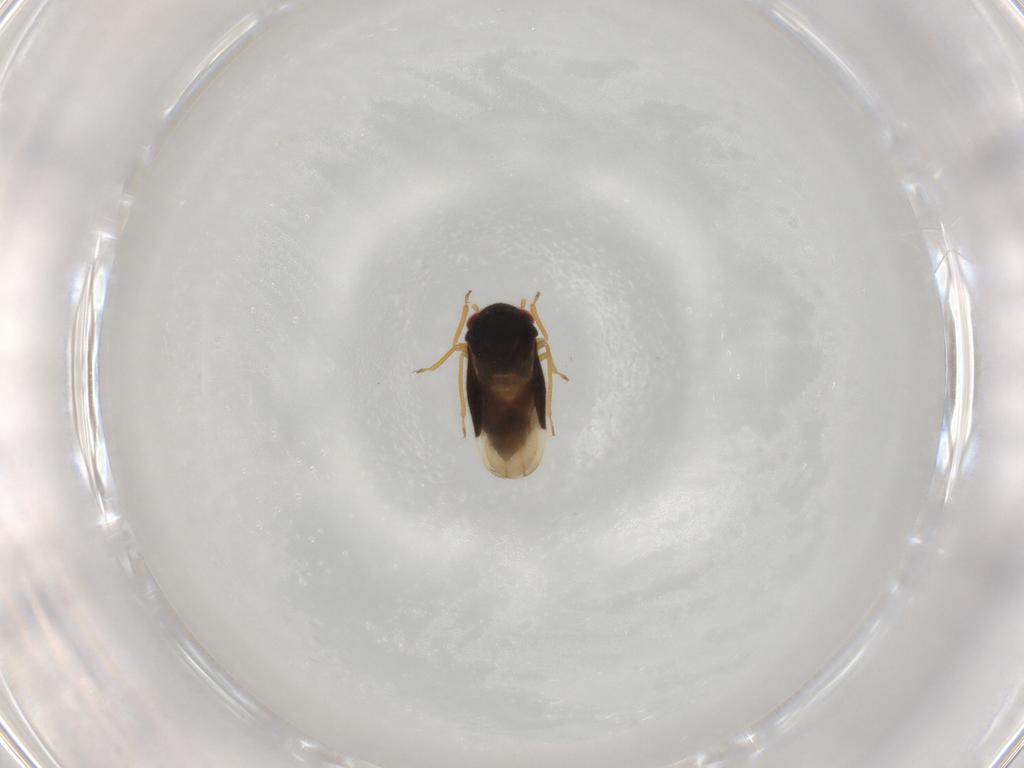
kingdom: Animalia
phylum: Arthropoda
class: Insecta
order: Hemiptera
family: Schizopteridae
